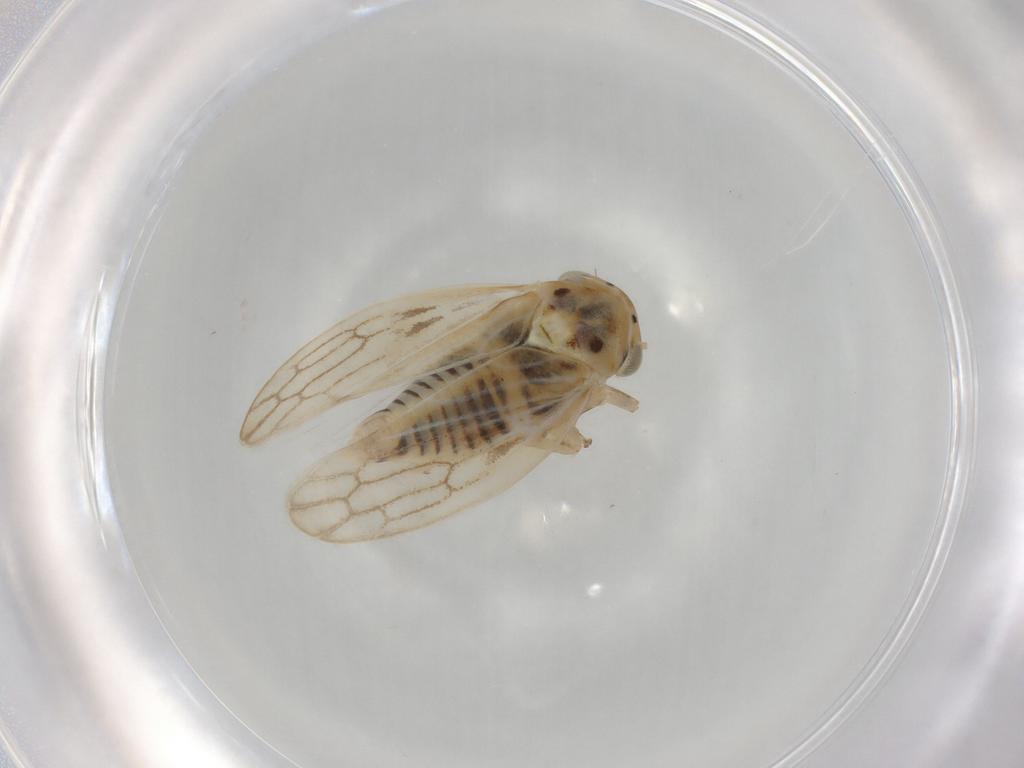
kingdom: Animalia
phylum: Arthropoda
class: Insecta
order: Hemiptera
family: Cicadellidae
